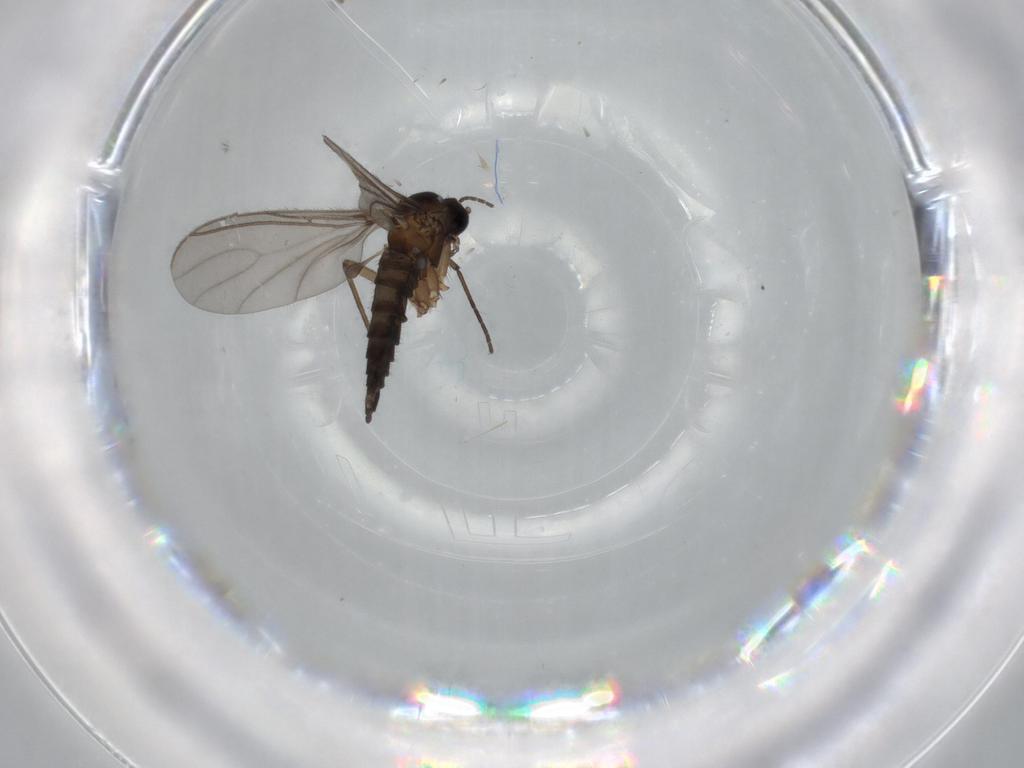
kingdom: Animalia
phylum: Arthropoda
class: Insecta
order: Diptera
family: Sciaridae
